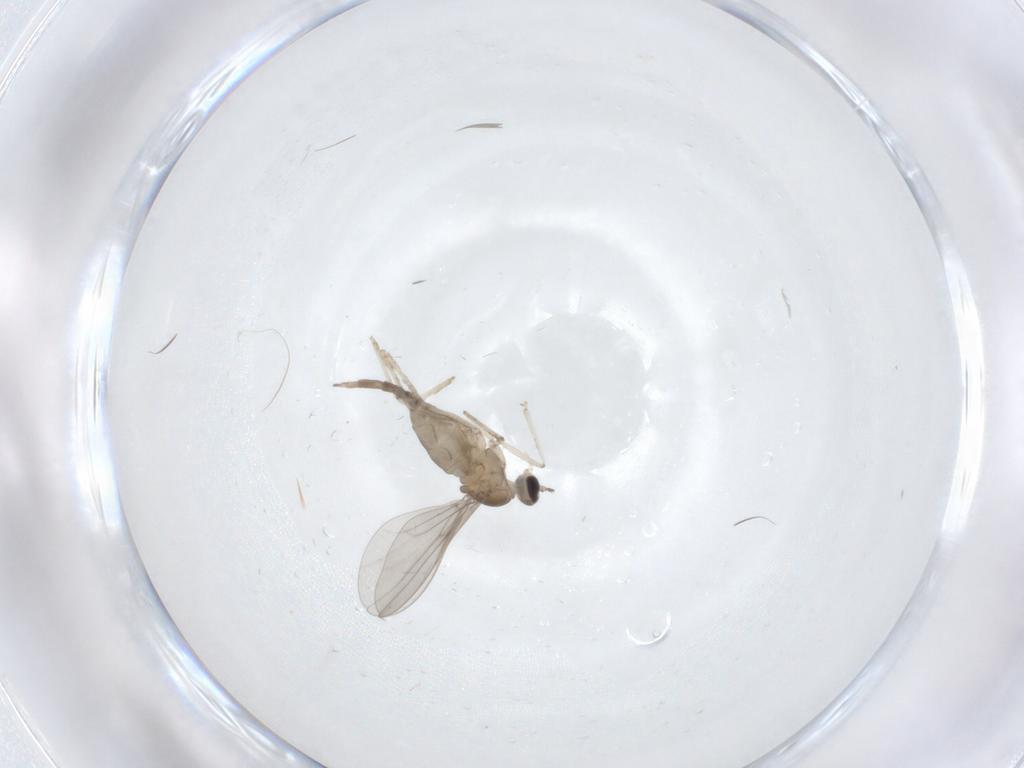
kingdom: Animalia
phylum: Arthropoda
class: Insecta
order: Diptera
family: Cecidomyiidae
